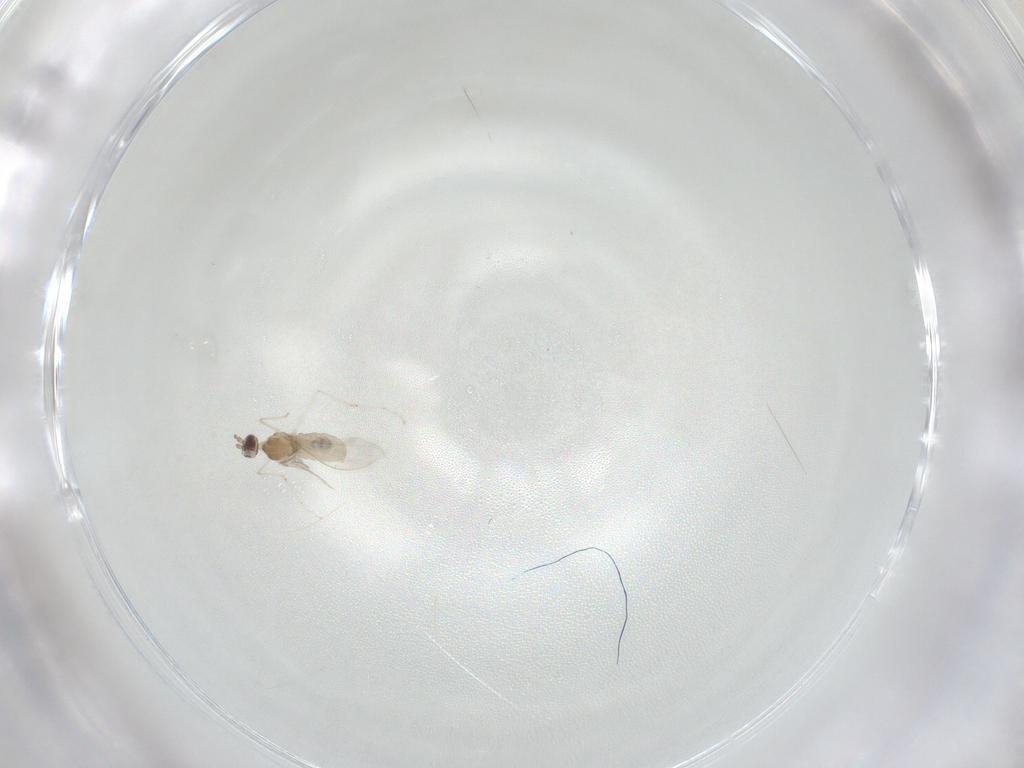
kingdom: Animalia
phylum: Arthropoda
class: Insecta
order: Diptera
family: Cecidomyiidae
